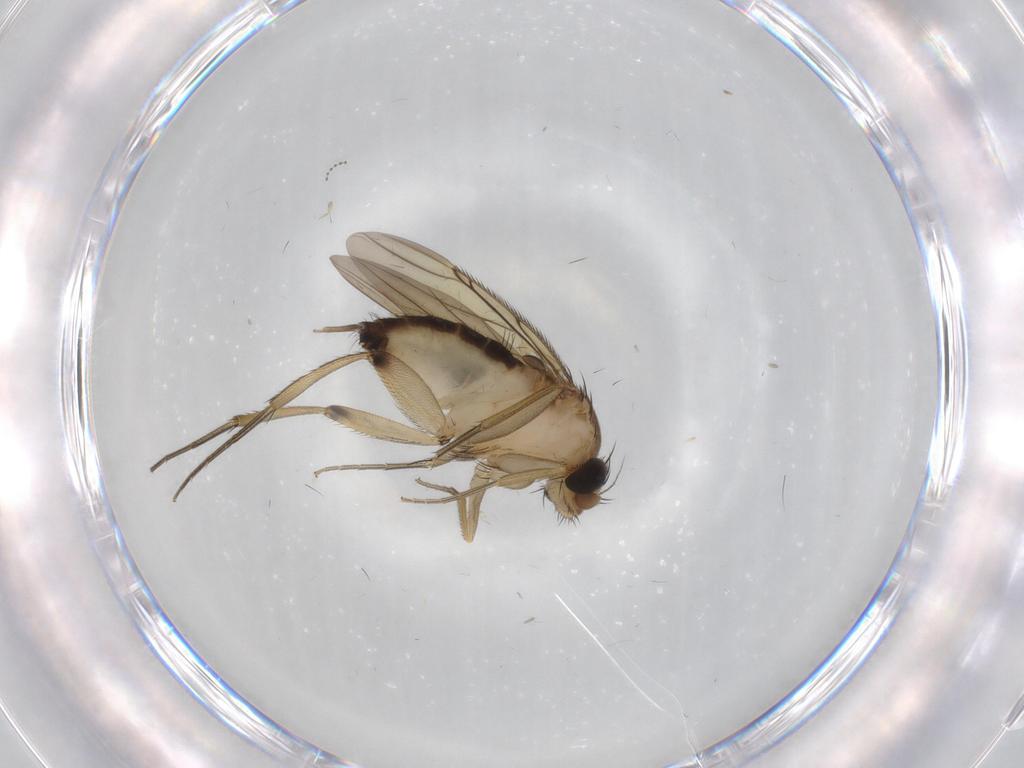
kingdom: Animalia
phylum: Arthropoda
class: Insecta
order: Diptera
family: Phoridae
